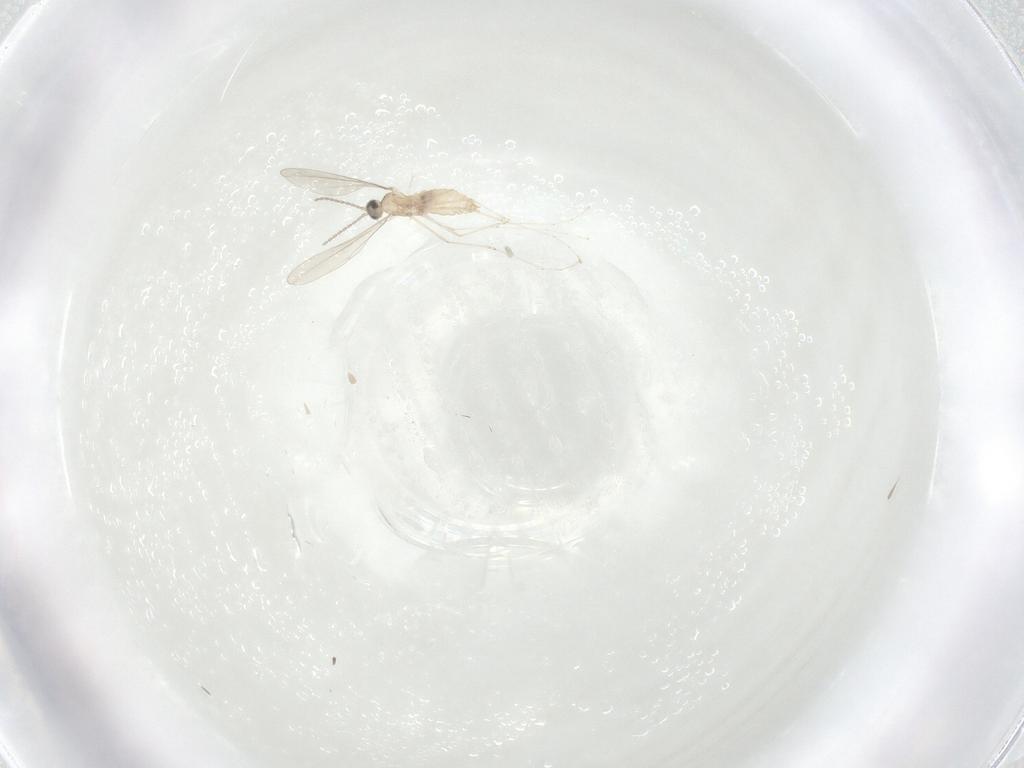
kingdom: Animalia
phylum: Arthropoda
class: Insecta
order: Diptera
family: Cecidomyiidae
